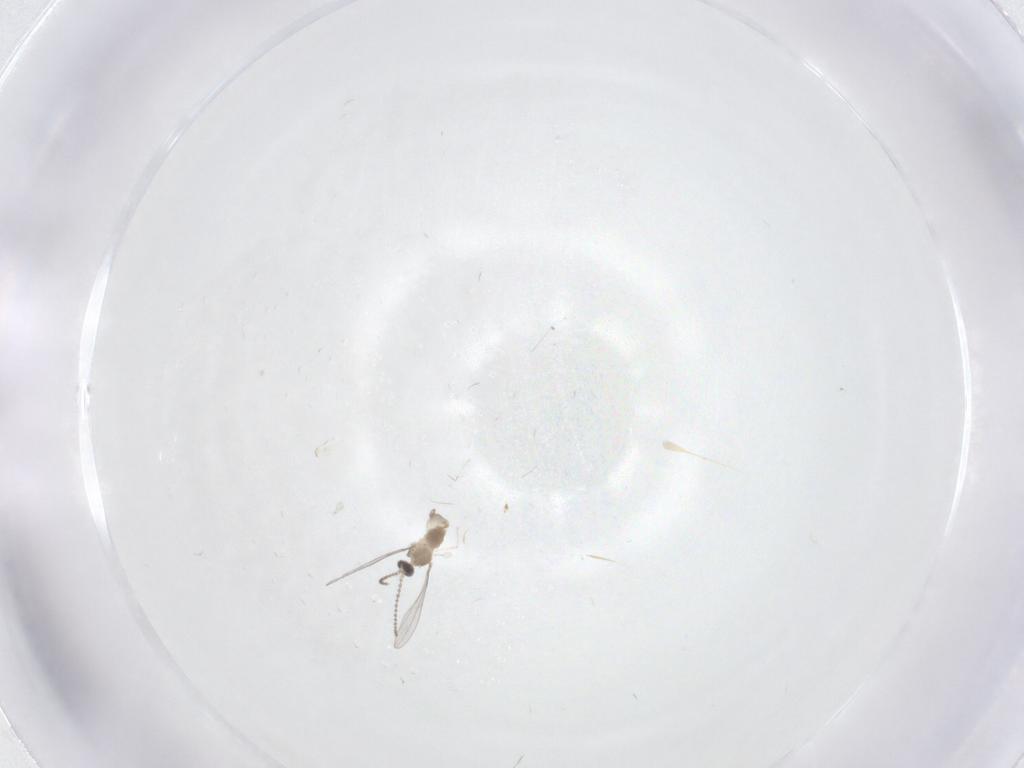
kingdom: Animalia
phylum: Arthropoda
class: Insecta
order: Diptera
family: Cecidomyiidae
